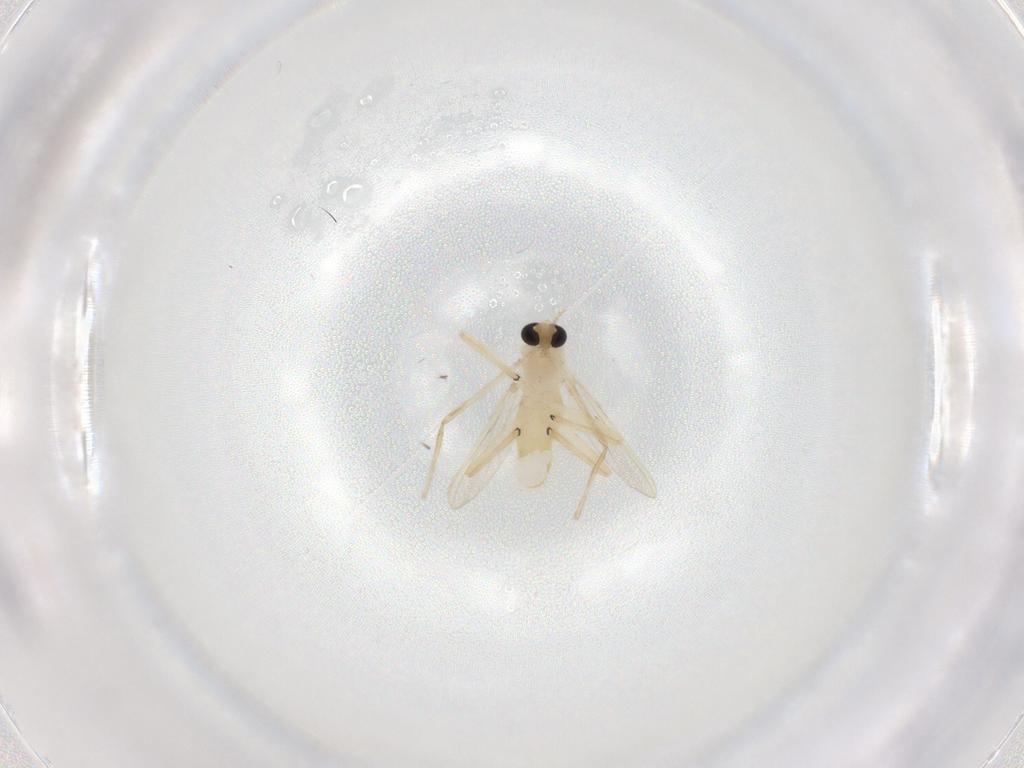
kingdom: Animalia
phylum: Arthropoda
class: Insecta
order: Diptera
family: Chironomidae
